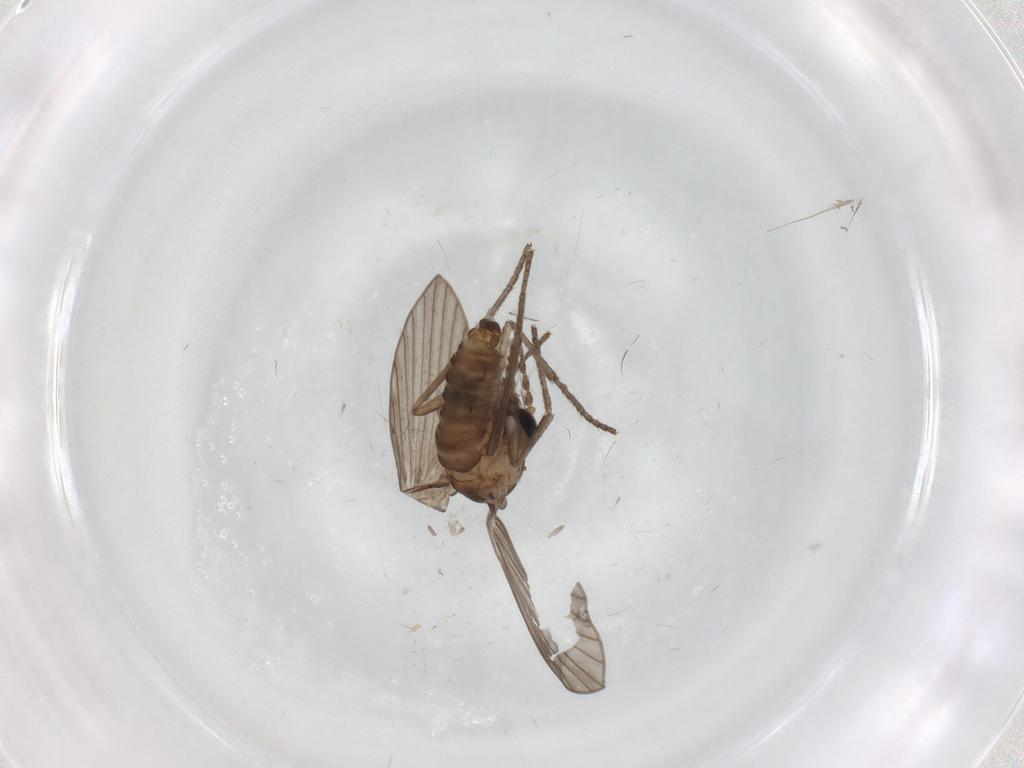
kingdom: Animalia
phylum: Arthropoda
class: Insecta
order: Diptera
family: Psychodidae
